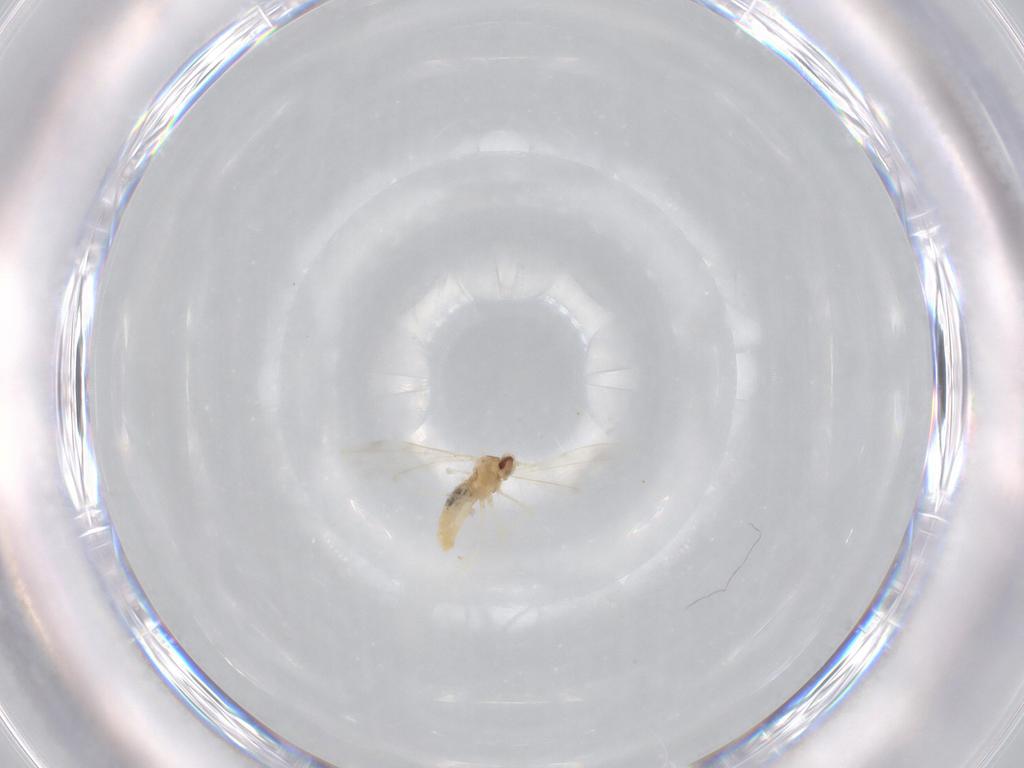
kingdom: Animalia
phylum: Arthropoda
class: Insecta
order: Diptera
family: Cecidomyiidae
